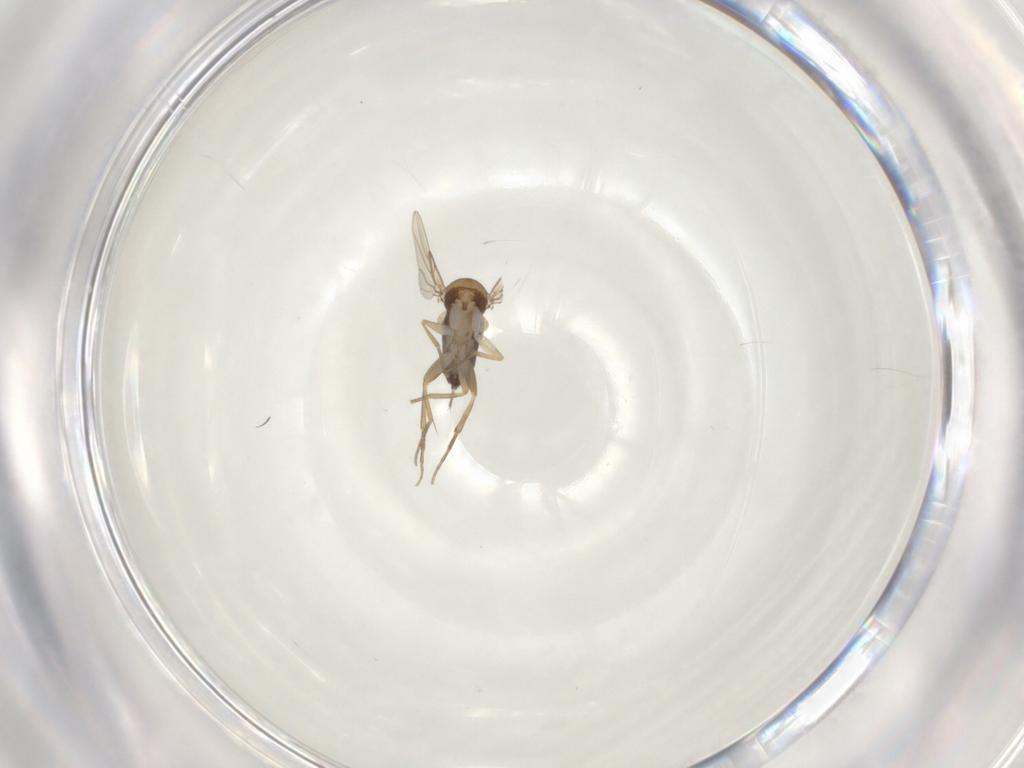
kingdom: Animalia
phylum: Arthropoda
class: Insecta
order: Diptera
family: Phoridae
